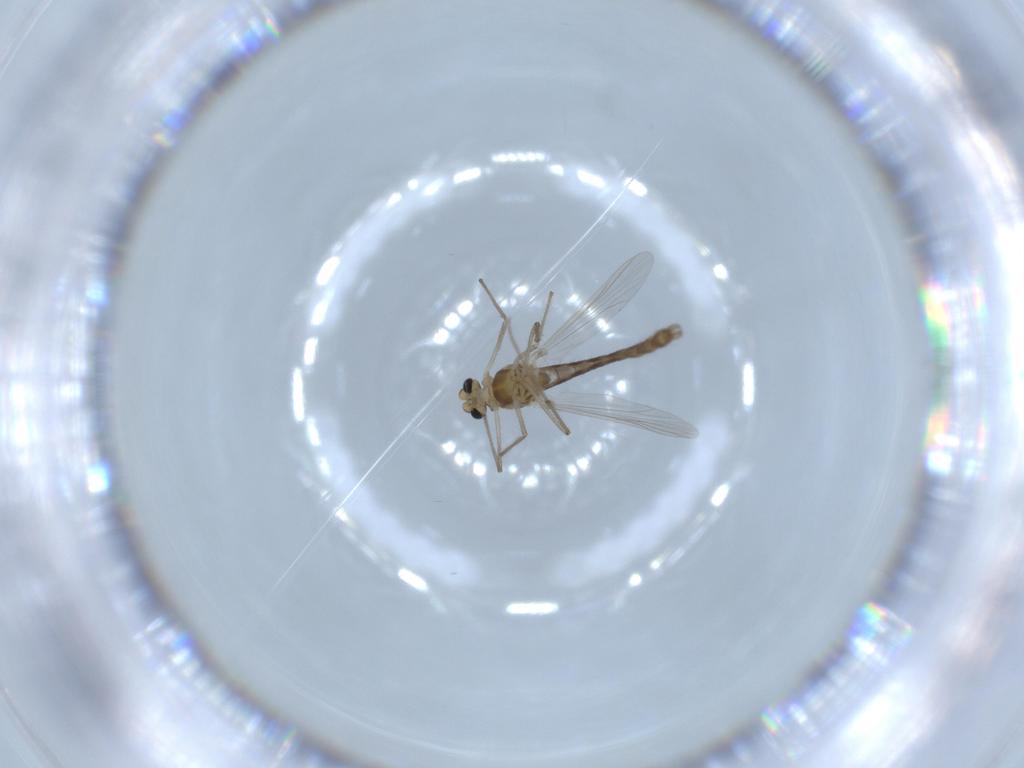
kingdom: Animalia
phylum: Arthropoda
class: Insecta
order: Diptera
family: Chironomidae
